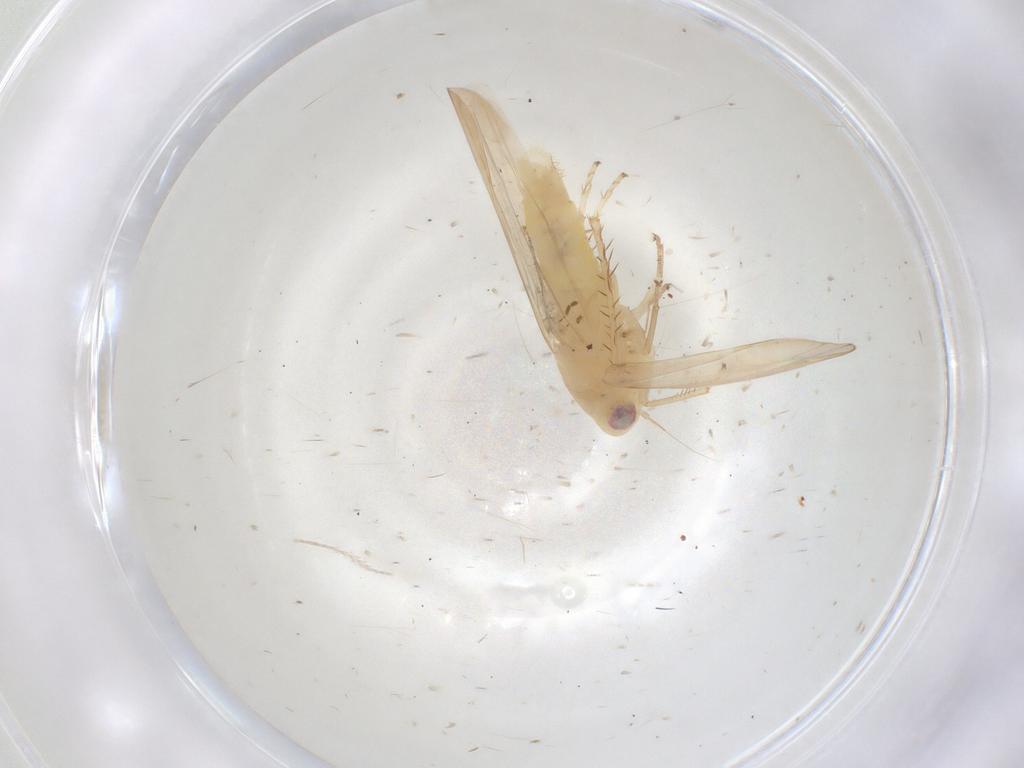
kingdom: Animalia
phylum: Arthropoda
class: Insecta
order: Hemiptera
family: Cicadellidae
